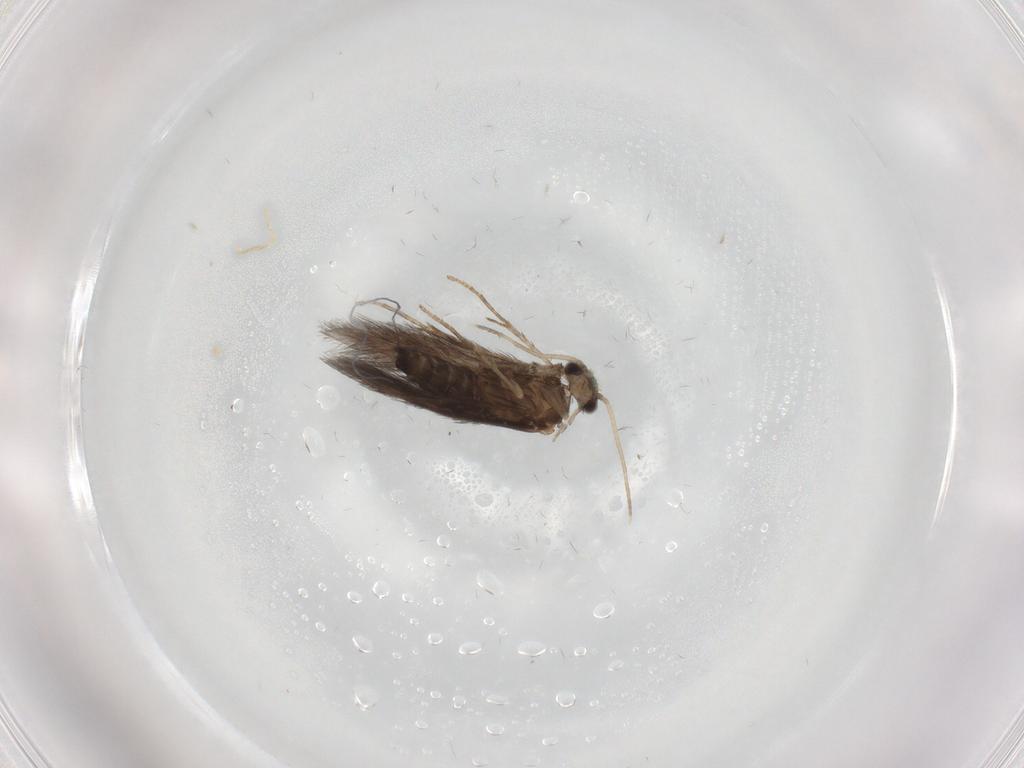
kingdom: Animalia
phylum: Arthropoda
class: Insecta
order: Trichoptera
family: Hydroptilidae
